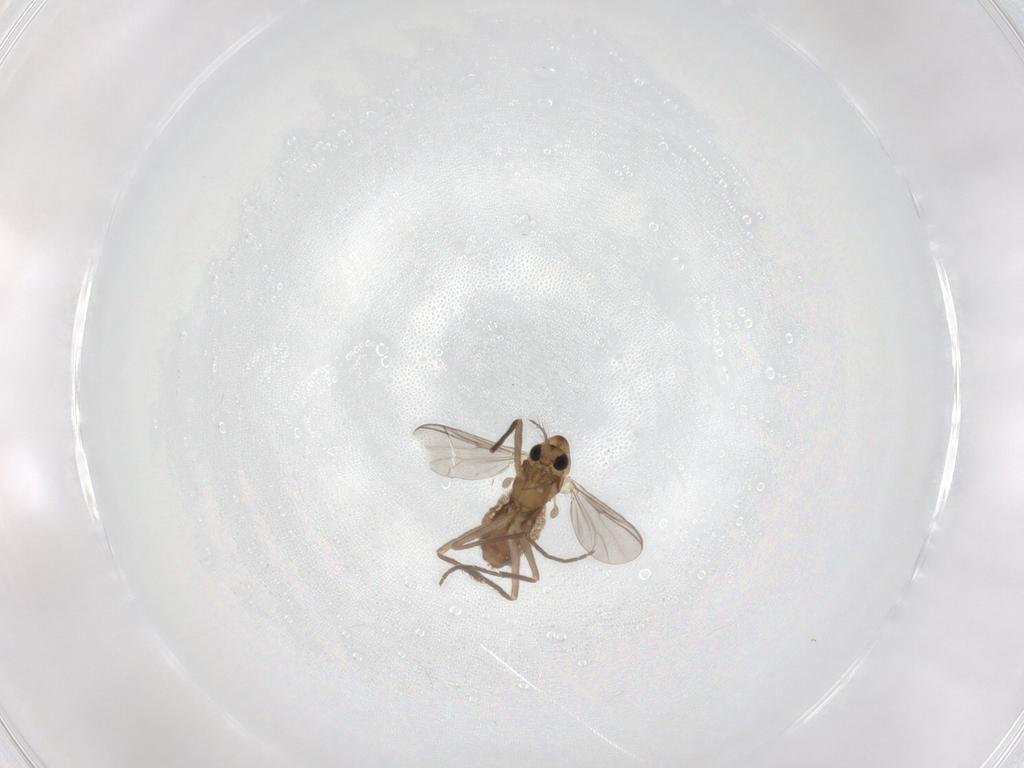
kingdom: Animalia
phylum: Arthropoda
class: Insecta
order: Diptera
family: Chironomidae
